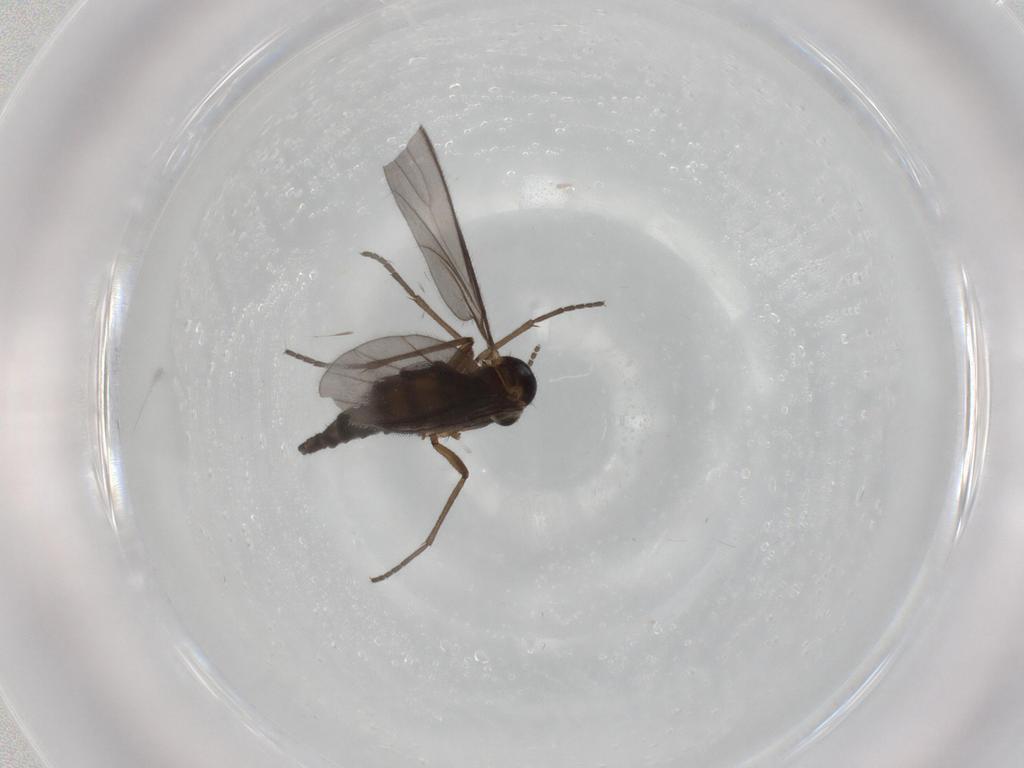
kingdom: Animalia
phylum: Arthropoda
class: Insecta
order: Diptera
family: Sciaridae
